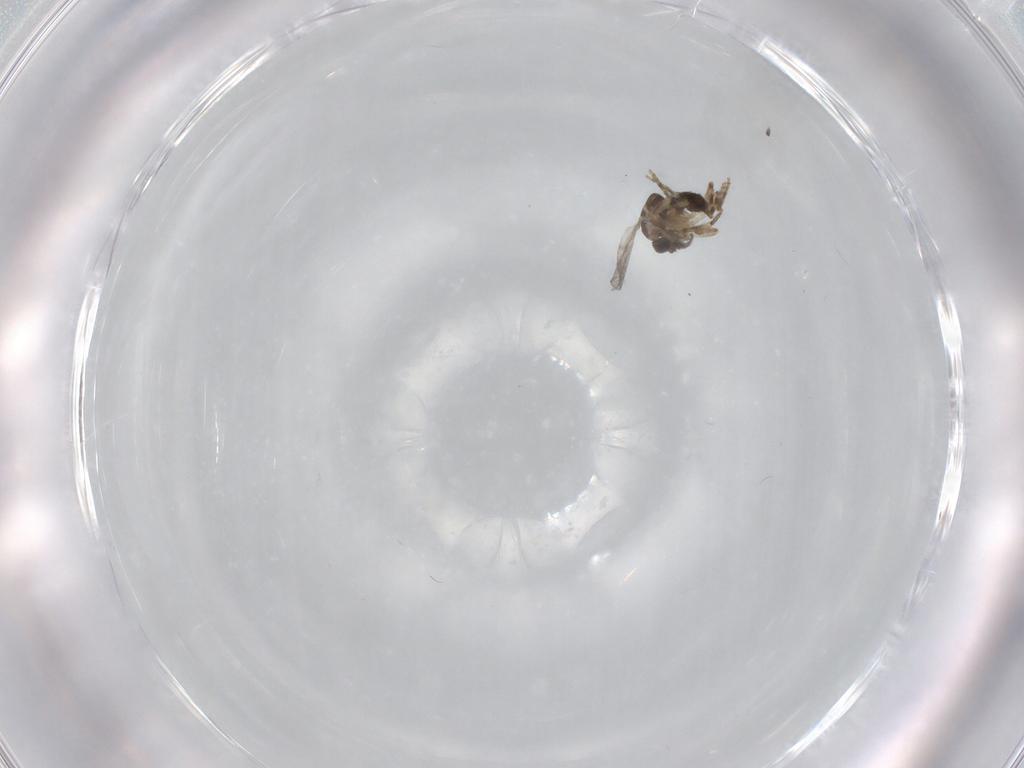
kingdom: Animalia
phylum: Arthropoda
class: Insecta
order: Diptera
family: Ceratopogonidae
